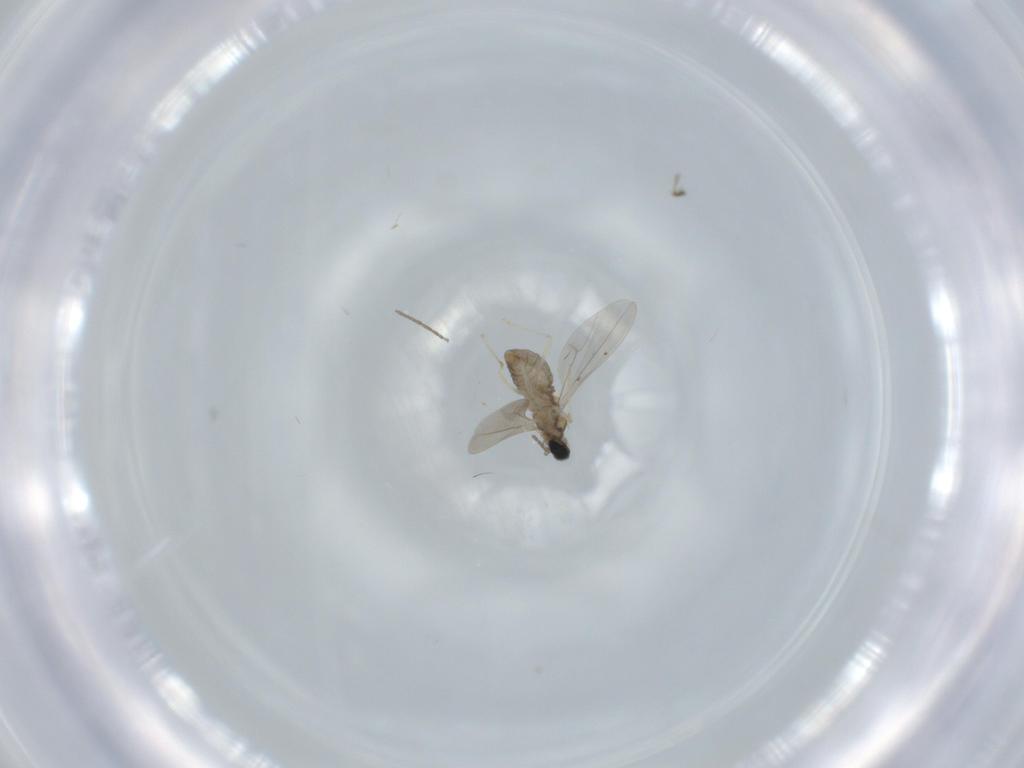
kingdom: Animalia
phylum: Arthropoda
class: Insecta
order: Diptera
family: Cecidomyiidae
